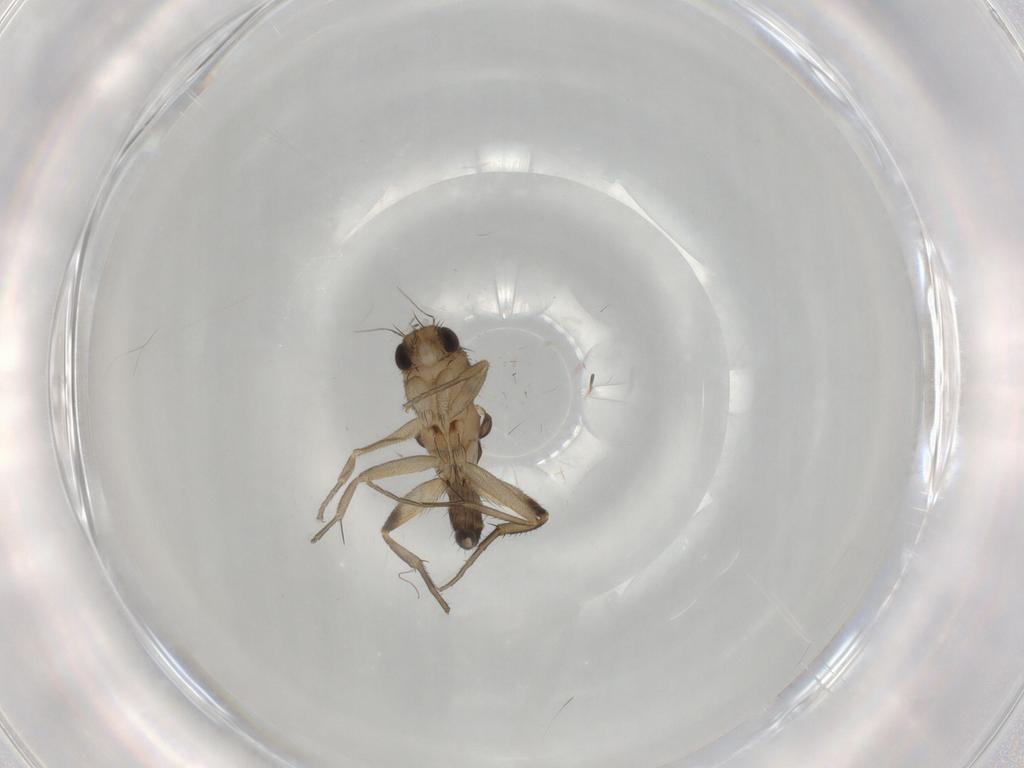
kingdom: Animalia
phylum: Arthropoda
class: Insecta
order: Diptera
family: Phoridae
